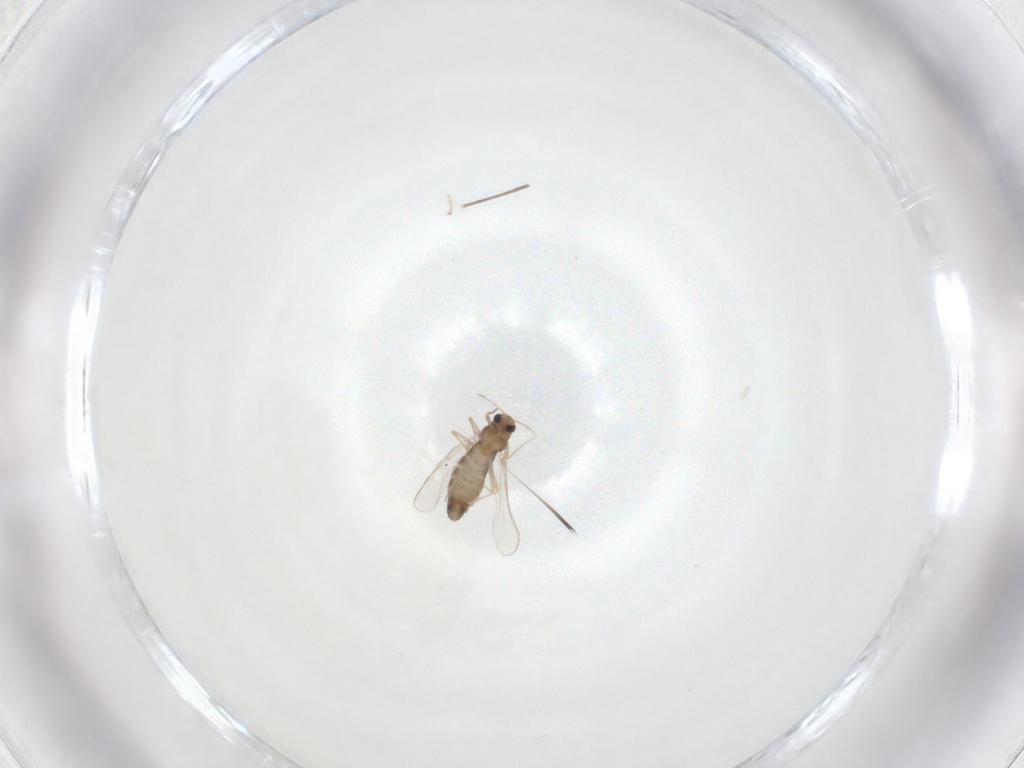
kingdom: Animalia
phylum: Arthropoda
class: Insecta
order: Diptera
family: Chironomidae
